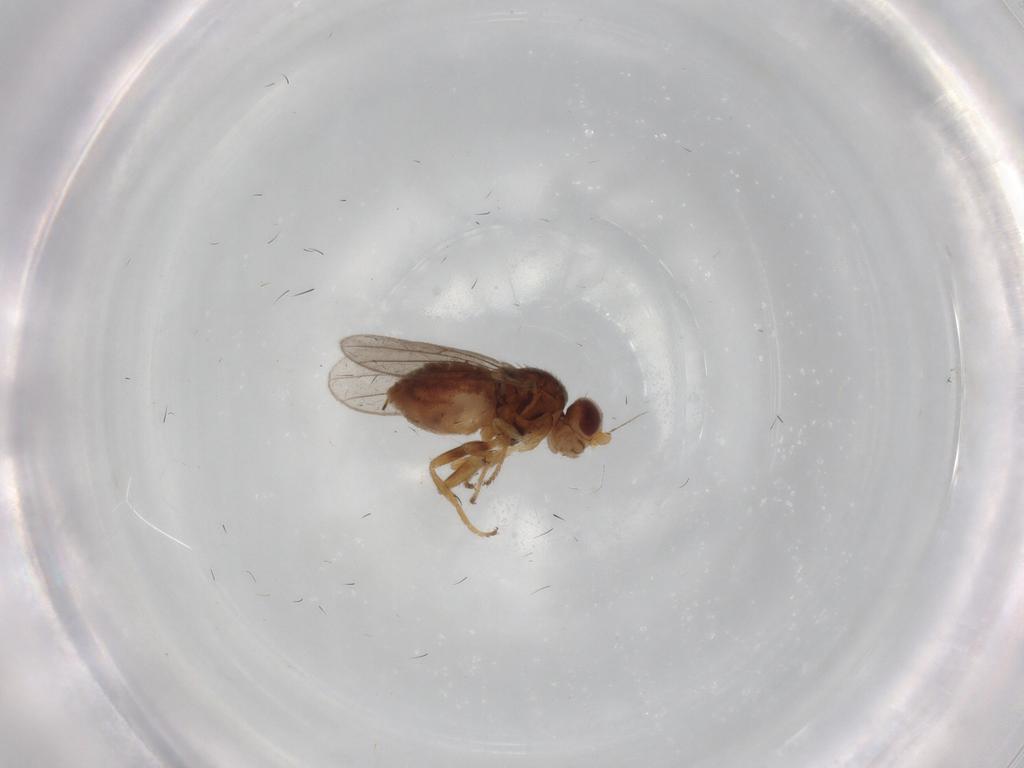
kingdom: Animalia
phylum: Arthropoda
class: Insecta
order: Diptera
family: Chloropidae
